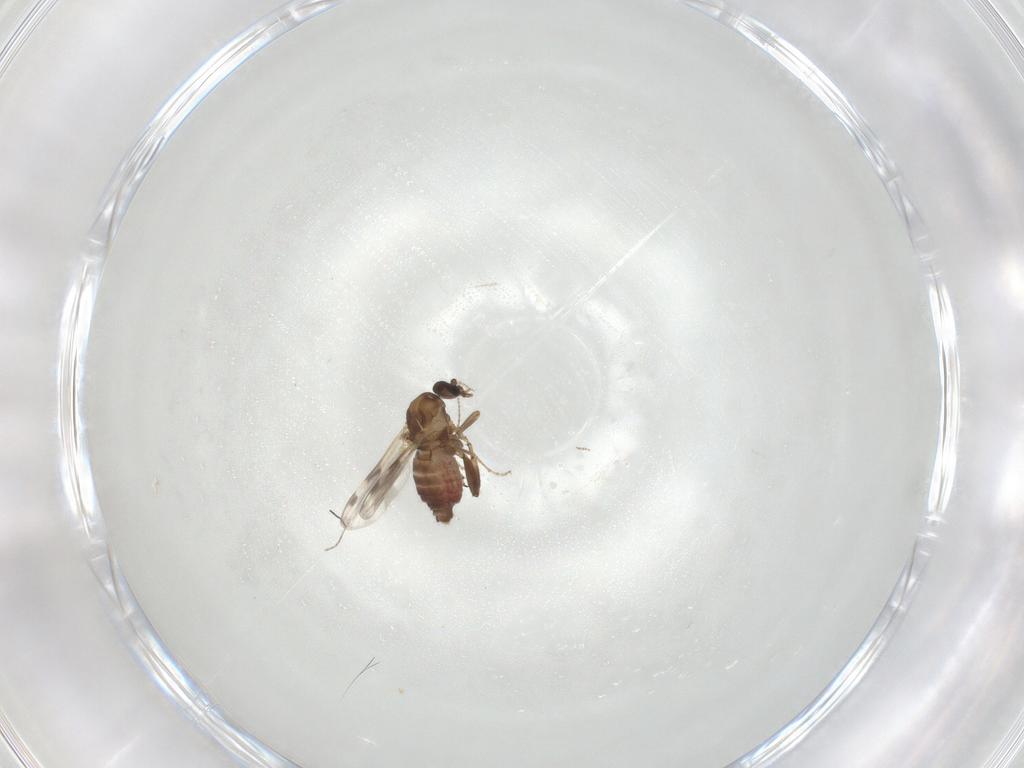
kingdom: Animalia
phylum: Arthropoda
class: Insecta
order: Diptera
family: Ceratopogonidae
